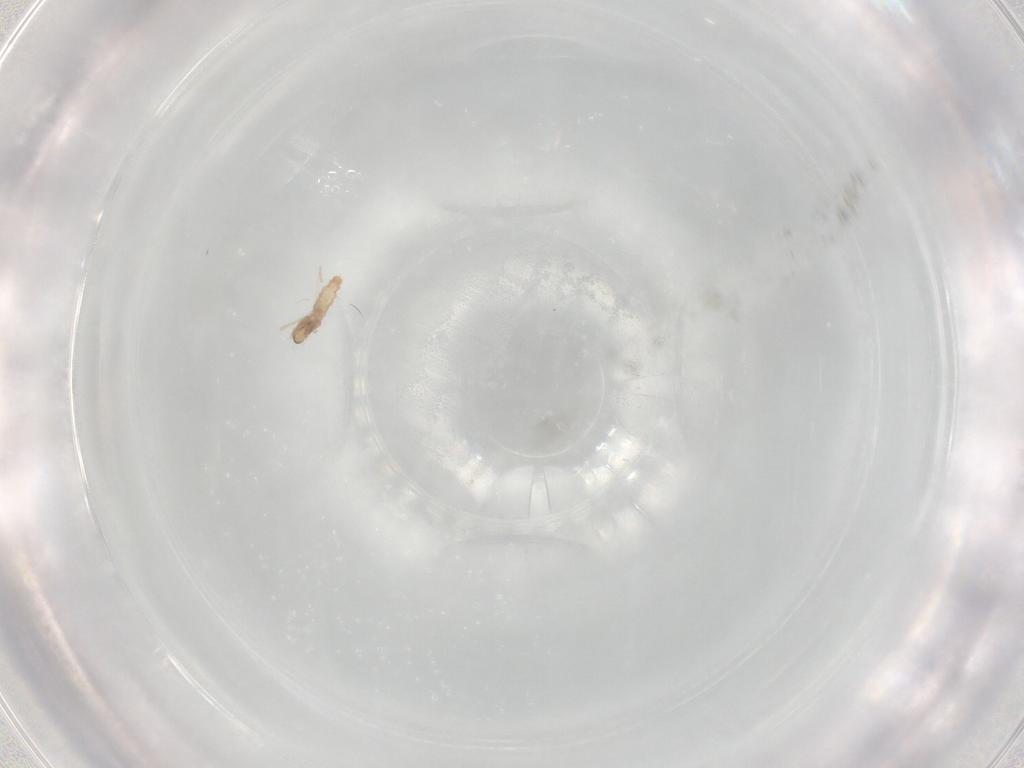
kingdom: Animalia
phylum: Arthropoda
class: Insecta
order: Diptera
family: Cecidomyiidae
